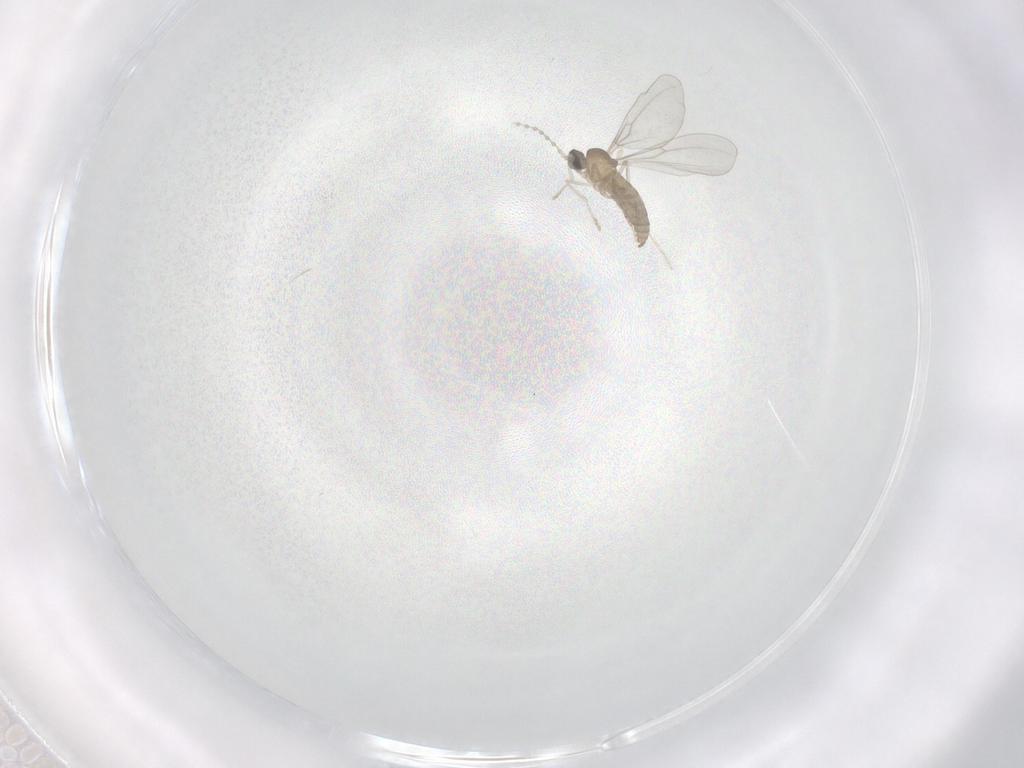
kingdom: Animalia
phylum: Arthropoda
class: Insecta
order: Diptera
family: Cecidomyiidae
